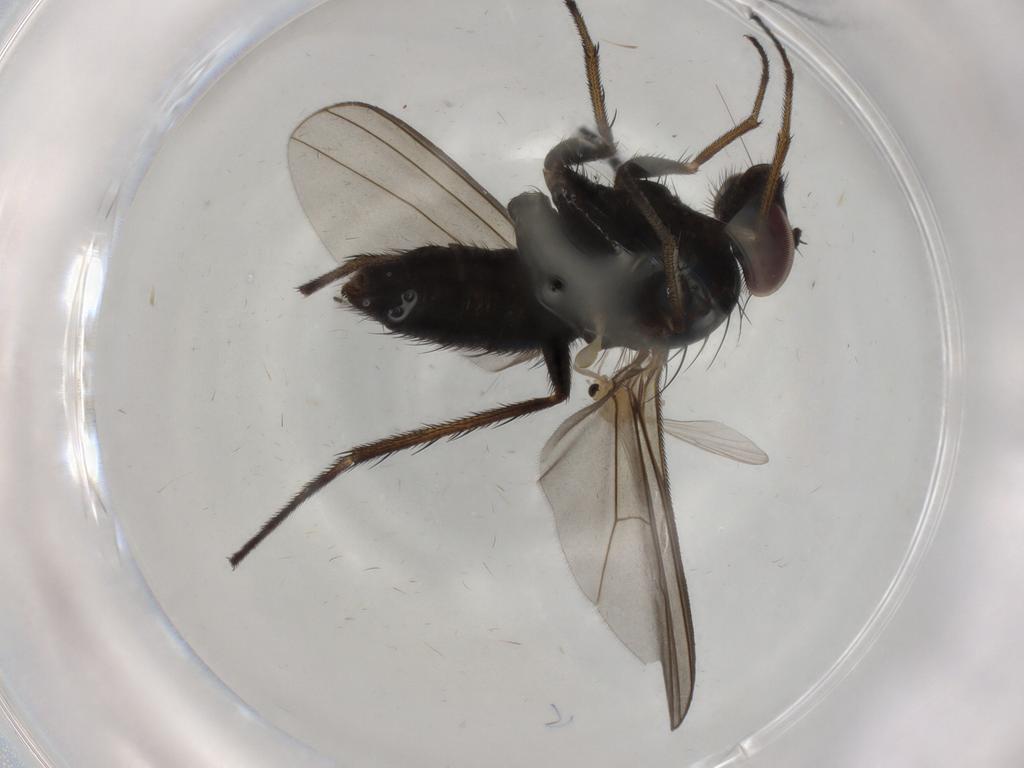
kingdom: Animalia
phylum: Arthropoda
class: Insecta
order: Diptera
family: Chironomidae
